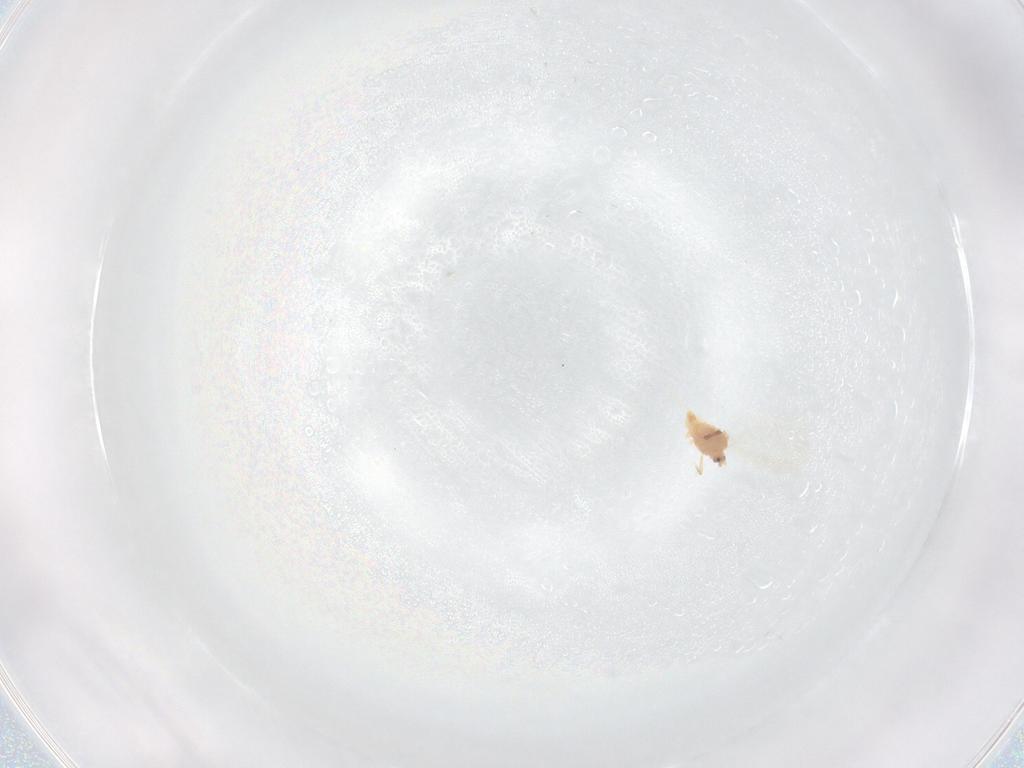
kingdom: Animalia
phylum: Arthropoda
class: Insecta
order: Hemiptera
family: Diaspididae
